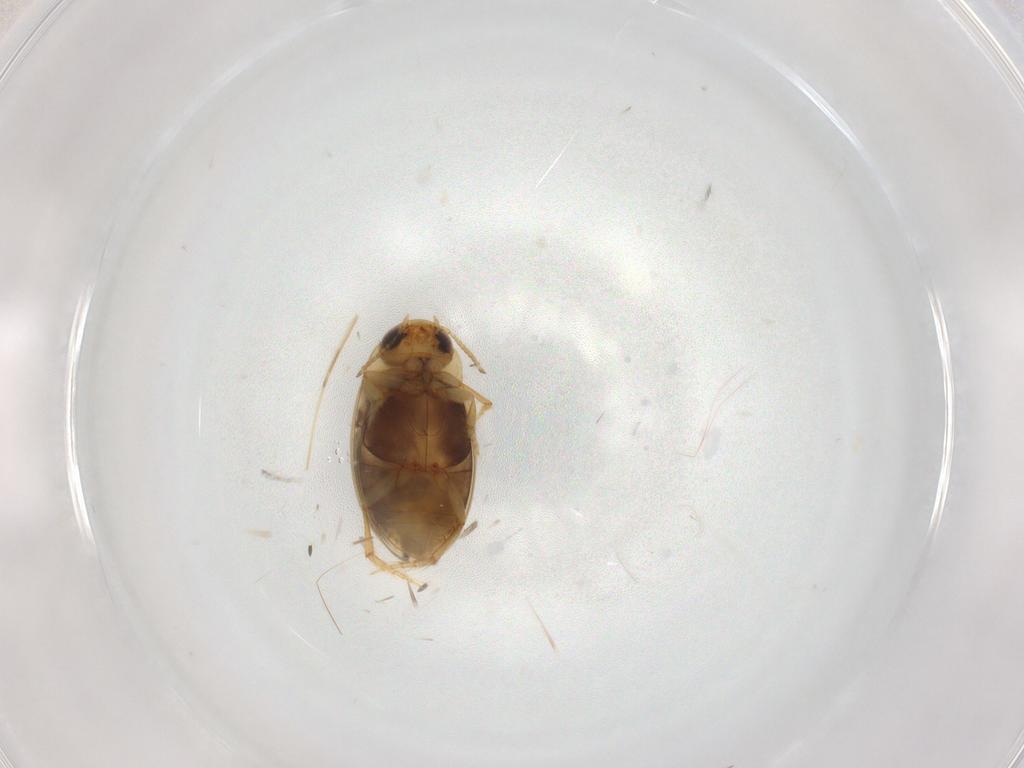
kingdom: Animalia
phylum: Arthropoda
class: Insecta
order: Coleoptera
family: Dytiscidae
